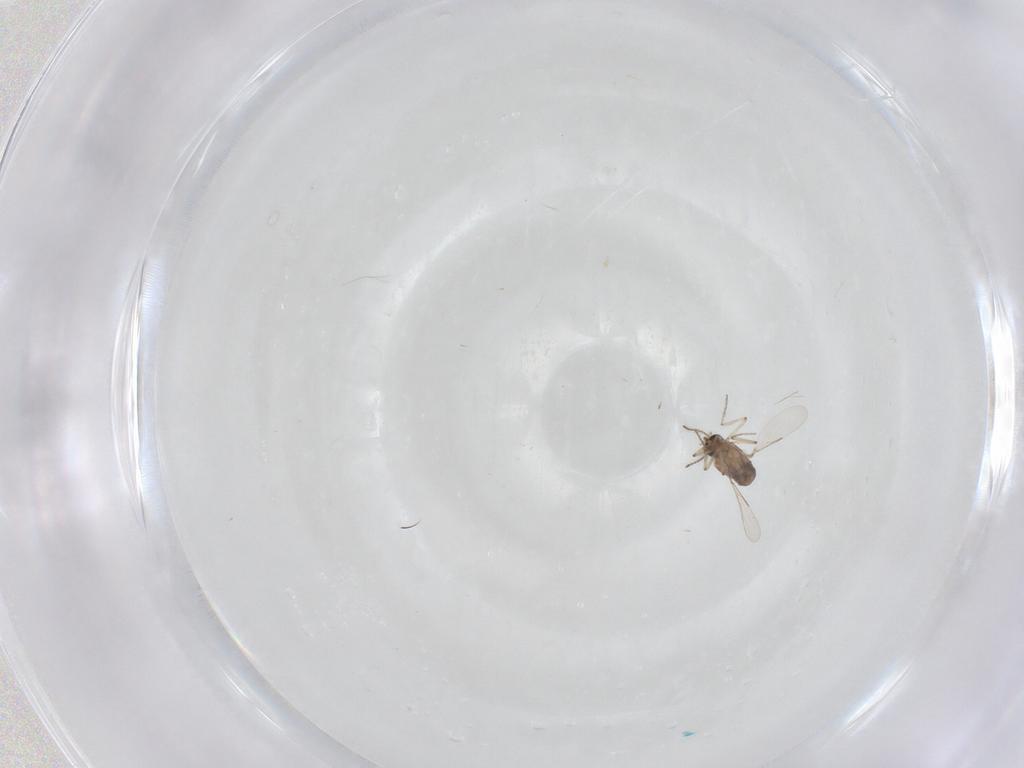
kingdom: Animalia
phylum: Arthropoda
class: Insecta
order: Diptera
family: Ceratopogonidae
